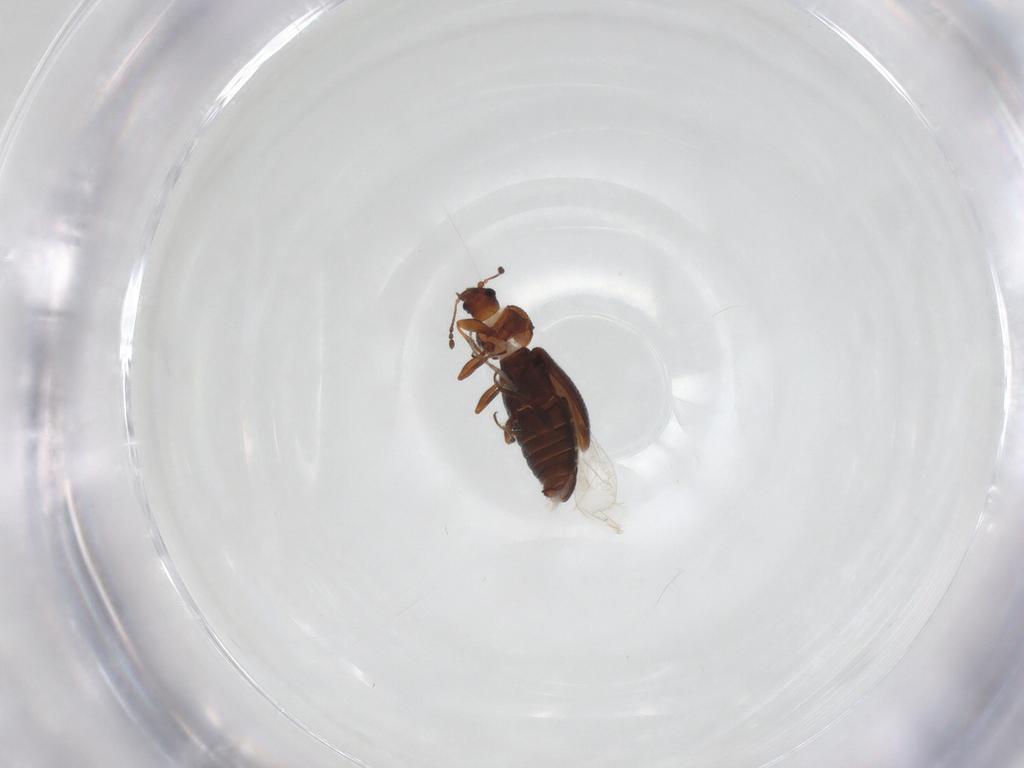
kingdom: Animalia
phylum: Arthropoda
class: Insecta
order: Coleoptera
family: Latridiidae
